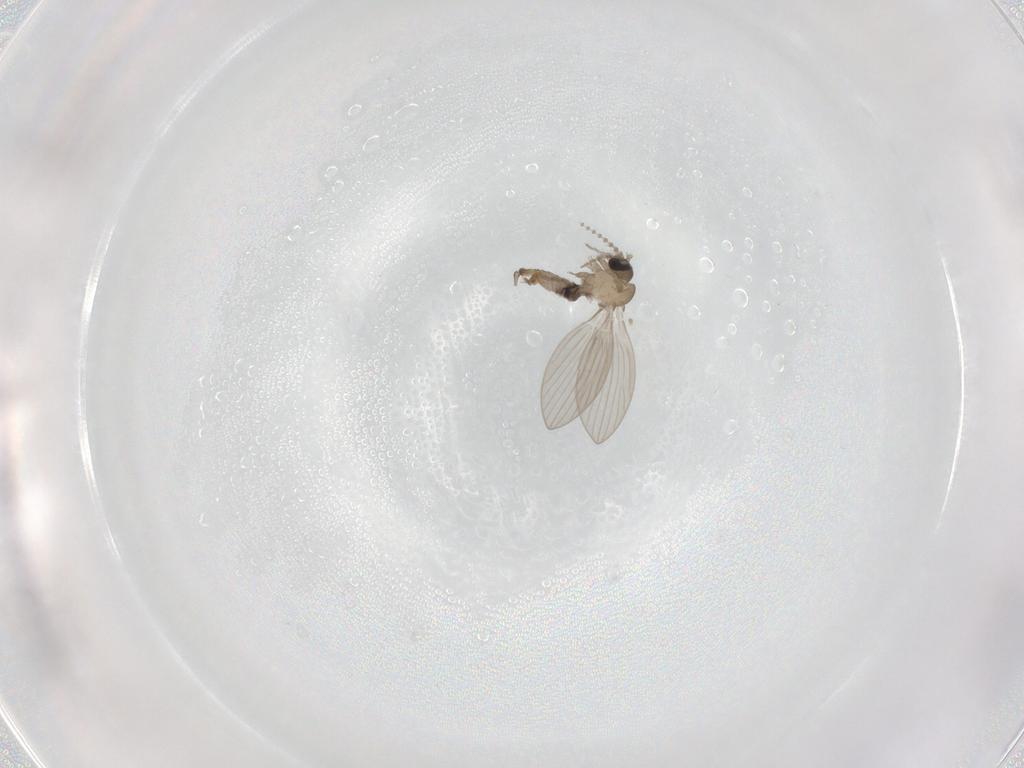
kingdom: Animalia
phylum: Arthropoda
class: Insecta
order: Diptera
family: Psychodidae
